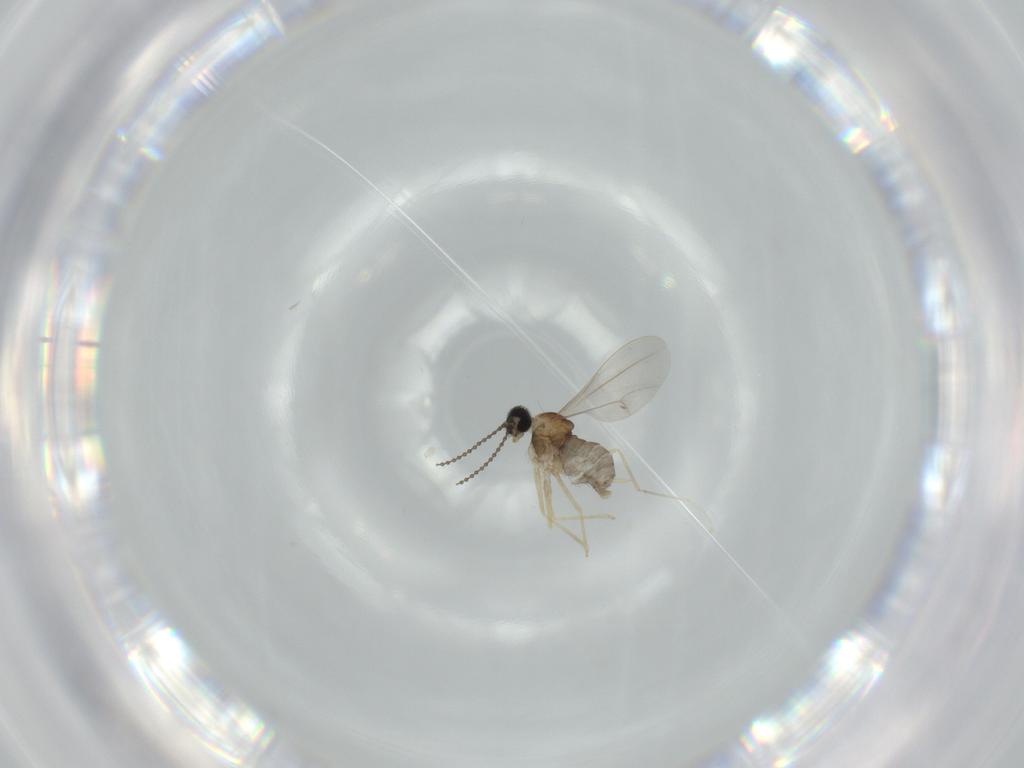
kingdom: Animalia
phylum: Arthropoda
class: Insecta
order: Diptera
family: Cecidomyiidae
